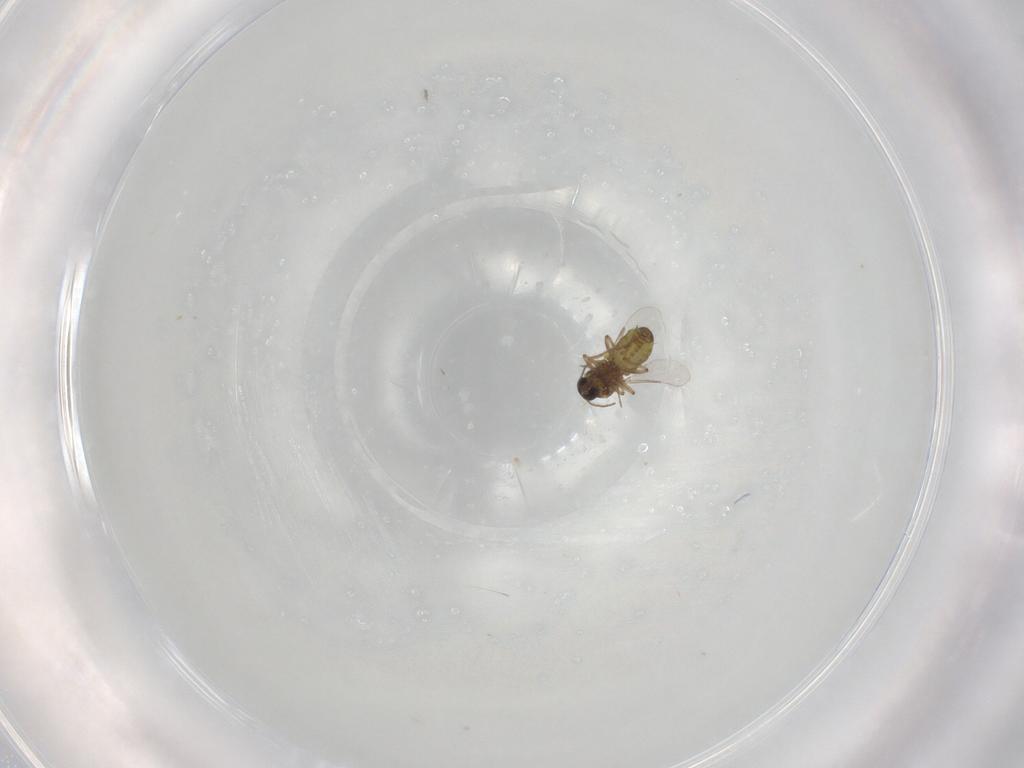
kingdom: Animalia
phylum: Arthropoda
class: Insecta
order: Diptera
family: Ceratopogonidae
